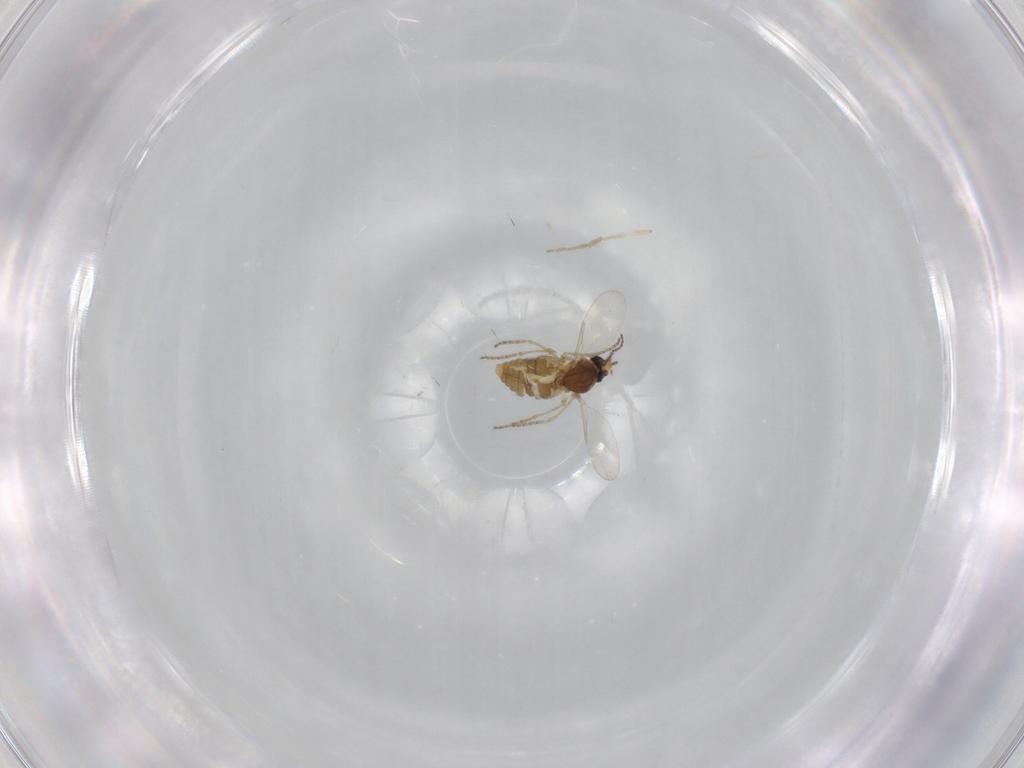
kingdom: Animalia
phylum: Arthropoda
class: Insecta
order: Diptera
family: Ceratopogonidae
